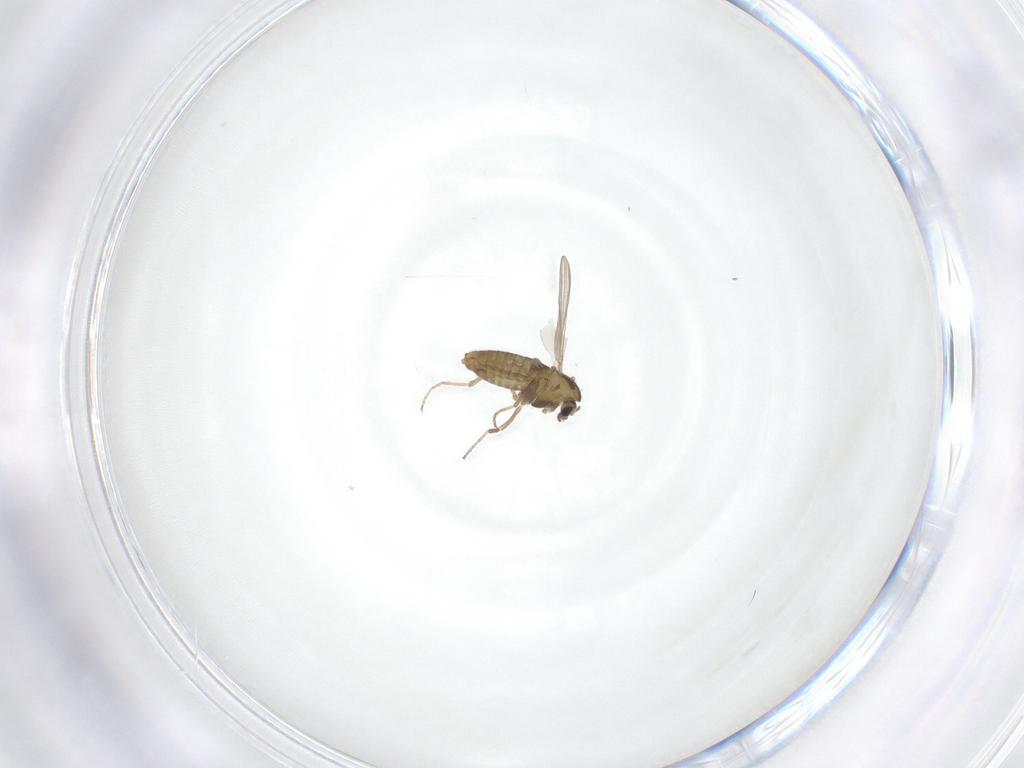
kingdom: Animalia
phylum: Arthropoda
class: Insecta
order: Diptera
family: Chironomidae
